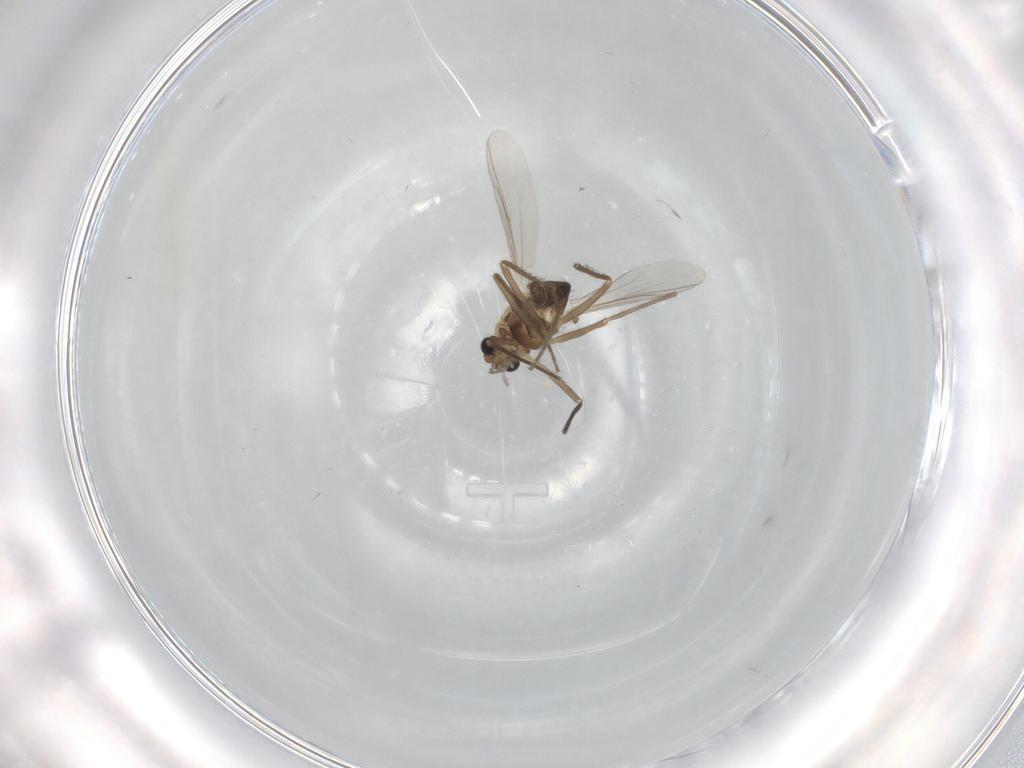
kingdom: Animalia
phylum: Arthropoda
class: Insecta
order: Diptera
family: Chironomidae
